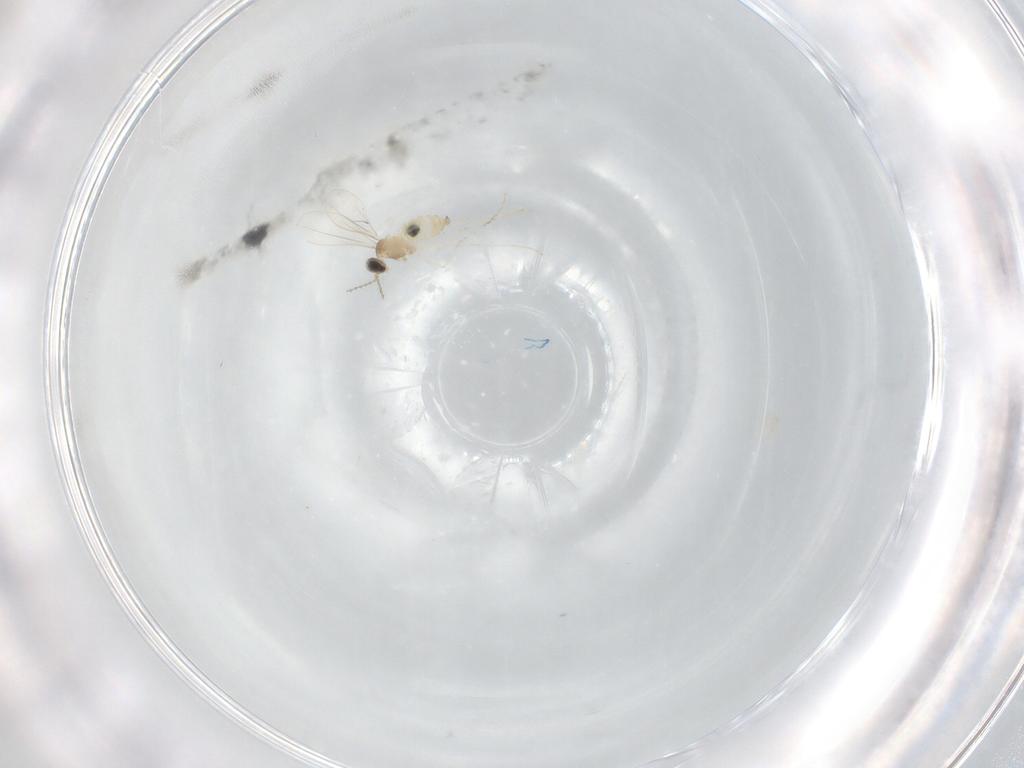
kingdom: Animalia
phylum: Arthropoda
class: Insecta
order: Diptera
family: Cecidomyiidae
